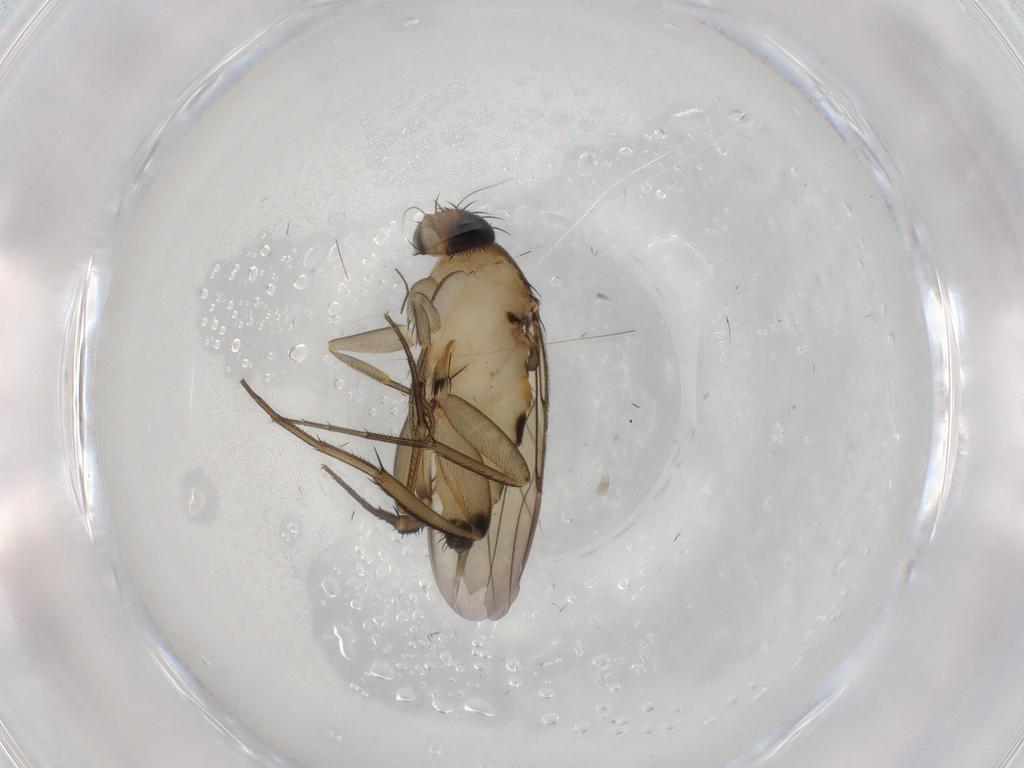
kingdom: Animalia
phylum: Arthropoda
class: Insecta
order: Diptera
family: Phoridae
